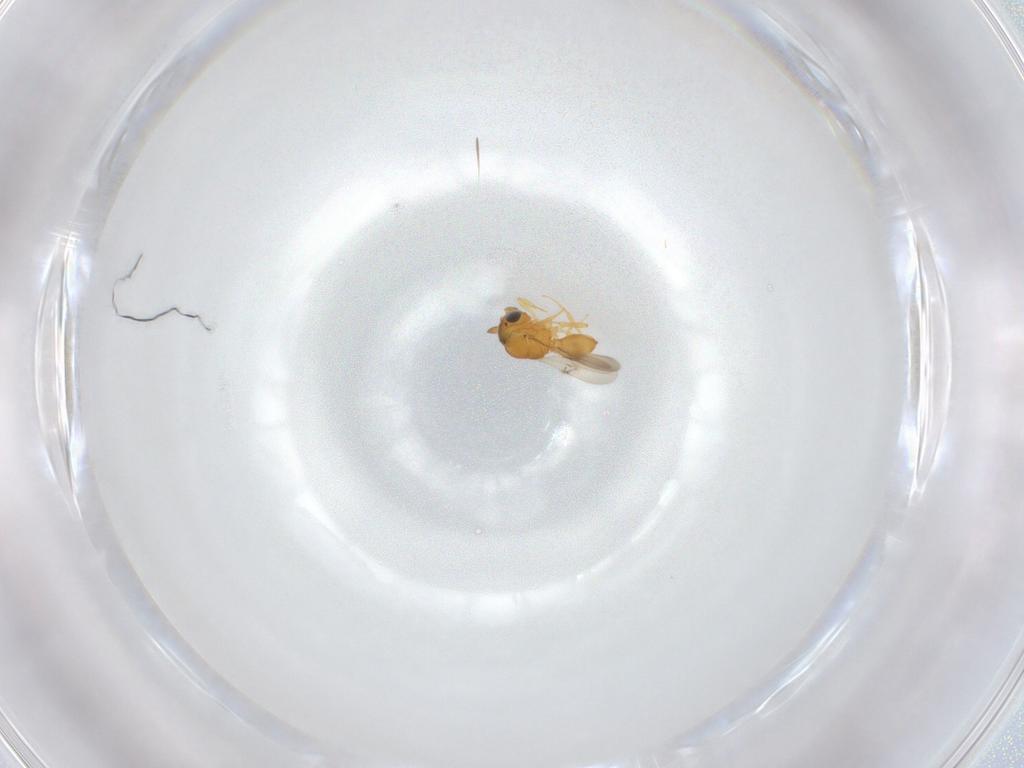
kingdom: Animalia
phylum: Arthropoda
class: Insecta
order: Hymenoptera
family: Scelionidae
